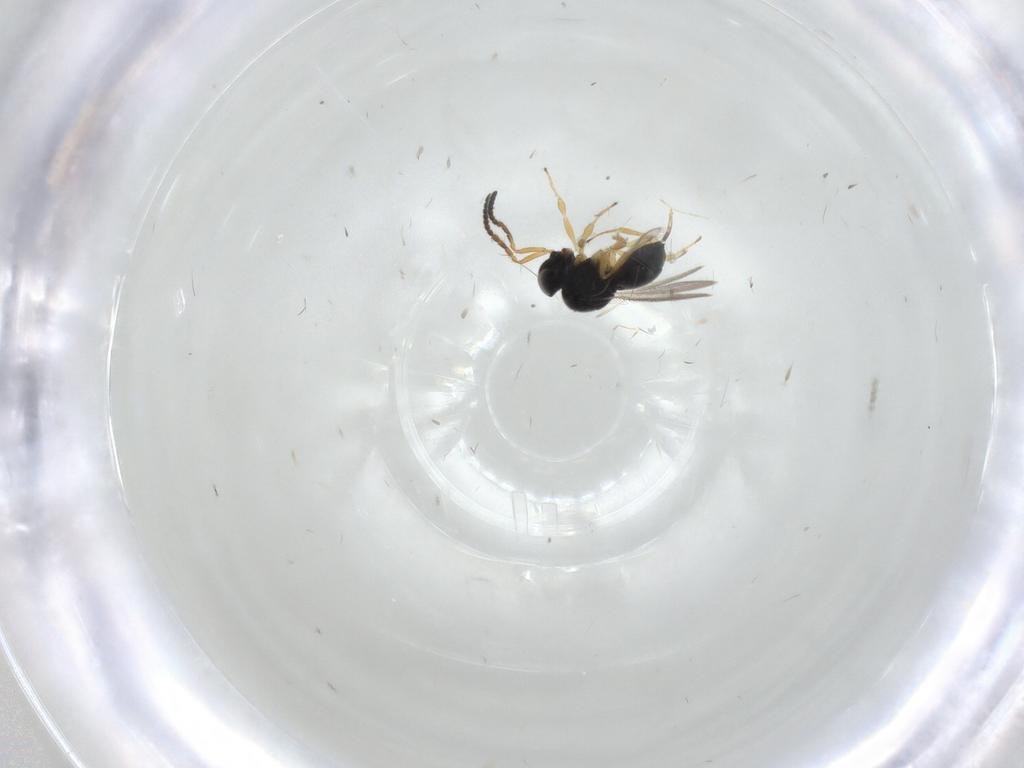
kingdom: Animalia
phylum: Arthropoda
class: Insecta
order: Hymenoptera
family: Scelionidae
